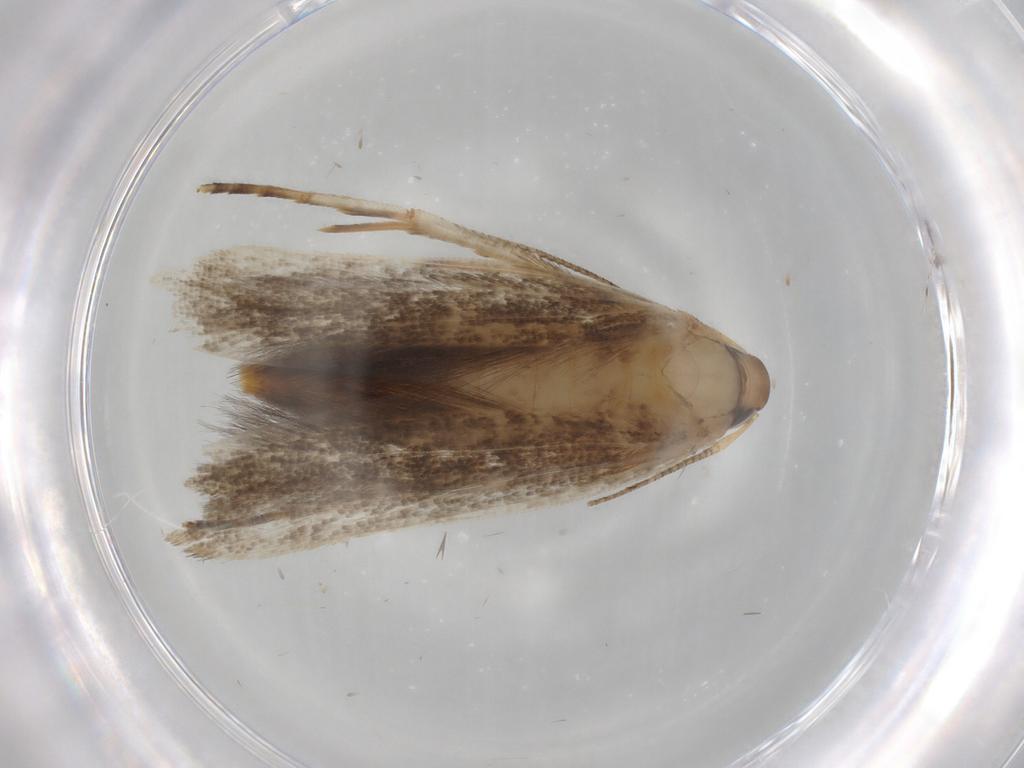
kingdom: Animalia
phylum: Arthropoda
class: Insecta
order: Lepidoptera
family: Cosmopterigidae
